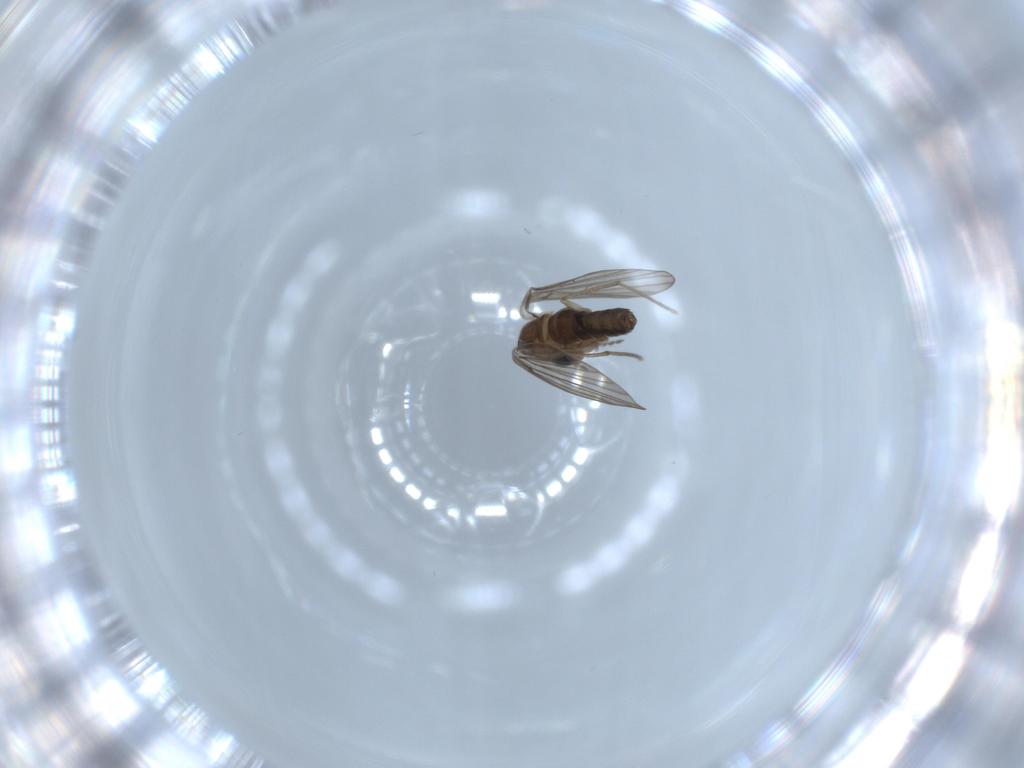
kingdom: Animalia
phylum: Arthropoda
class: Insecta
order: Diptera
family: Psychodidae
